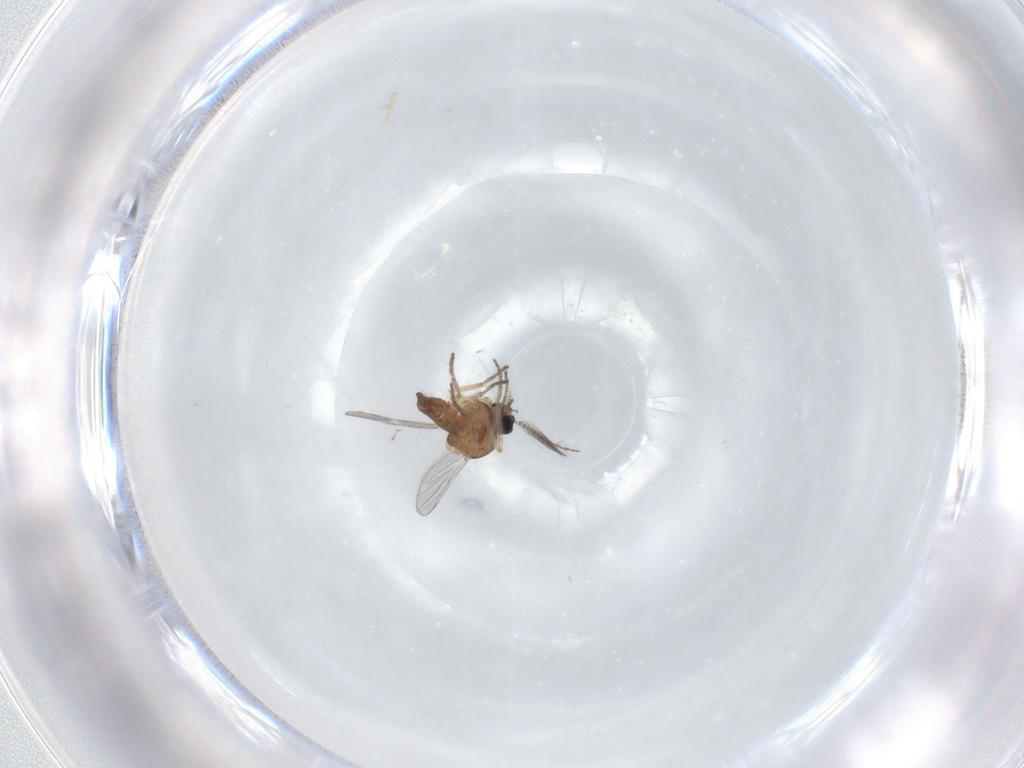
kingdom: Animalia
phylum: Arthropoda
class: Insecta
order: Diptera
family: Ceratopogonidae
